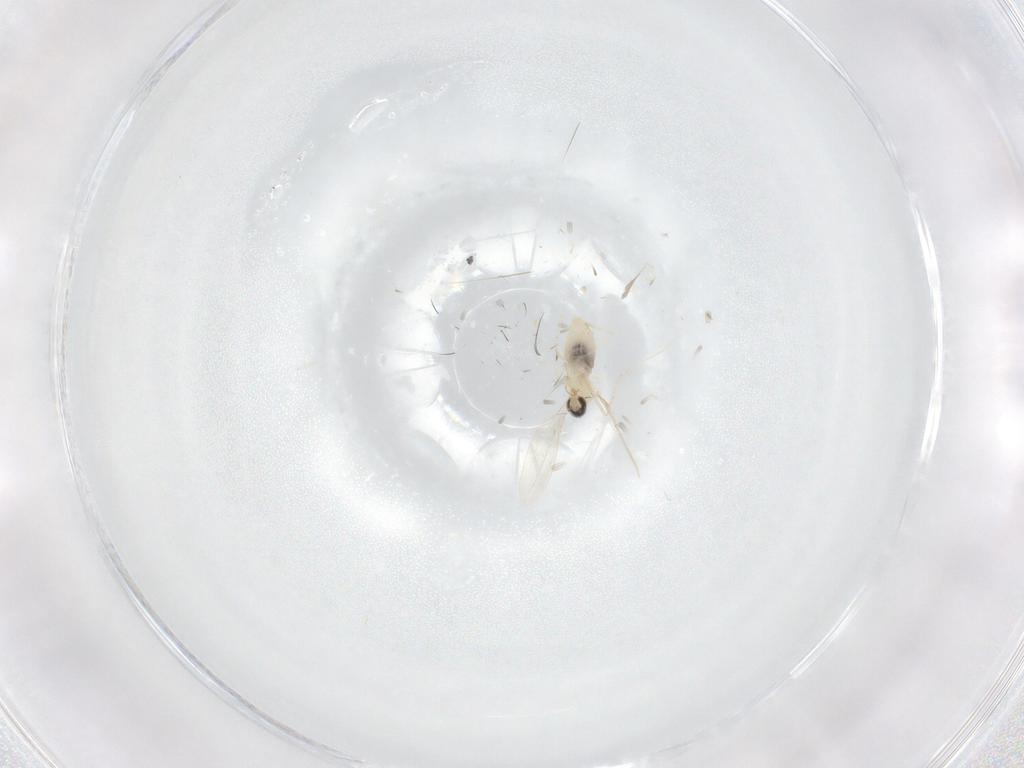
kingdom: Animalia
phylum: Arthropoda
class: Insecta
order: Diptera
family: Cecidomyiidae
